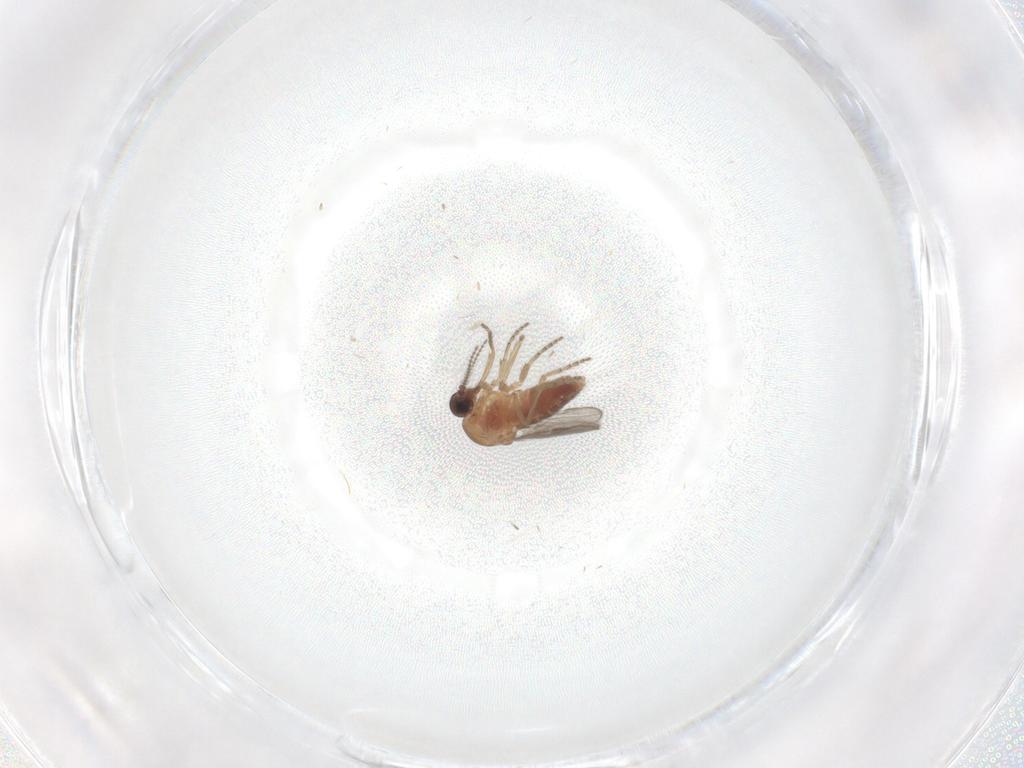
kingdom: Animalia
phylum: Arthropoda
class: Insecta
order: Diptera
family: Ceratopogonidae
